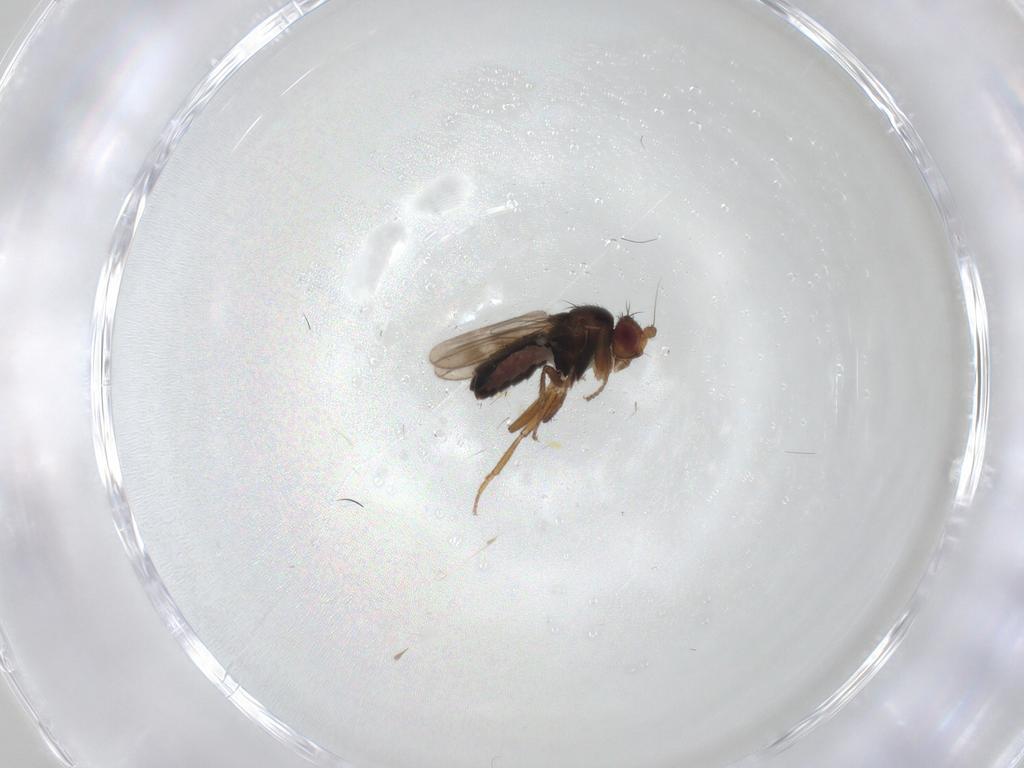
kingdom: Animalia
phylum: Arthropoda
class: Insecta
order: Diptera
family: Sphaeroceridae
